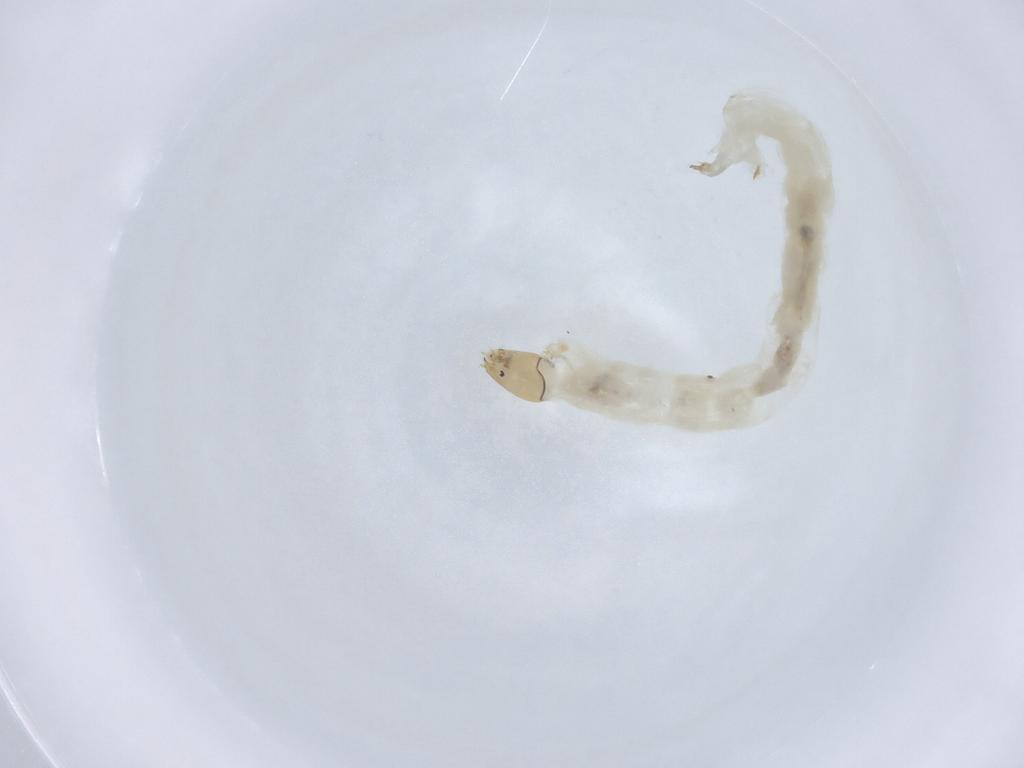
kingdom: Animalia
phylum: Arthropoda
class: Insecta
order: Diptera
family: Chironomidae
